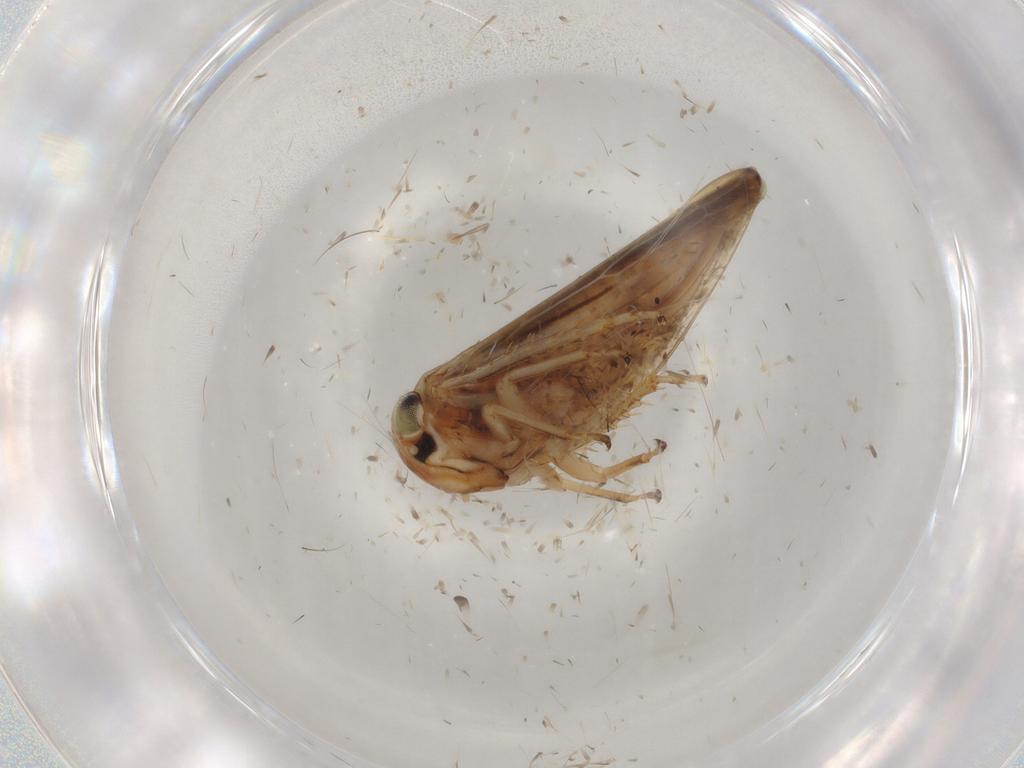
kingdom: Animalia
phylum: Arthropoda
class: Insecta
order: Hemiptera
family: Cicadellidae
